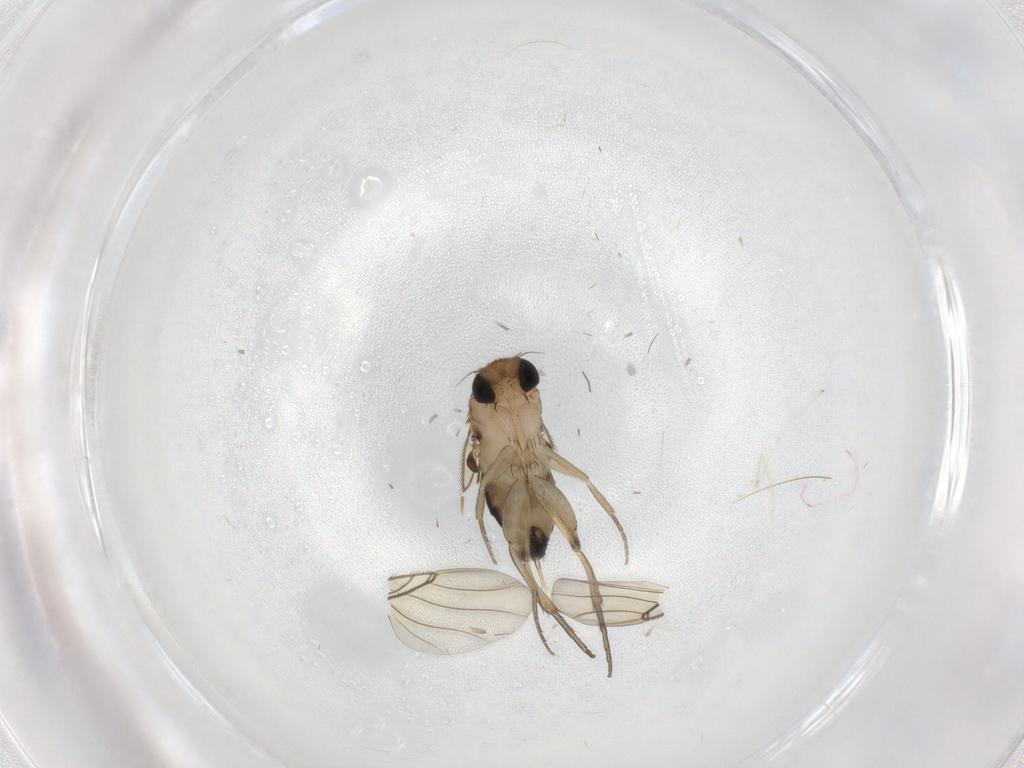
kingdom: Animalia
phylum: Arthropoda
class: Insecta
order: Diptera
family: Phoridae
